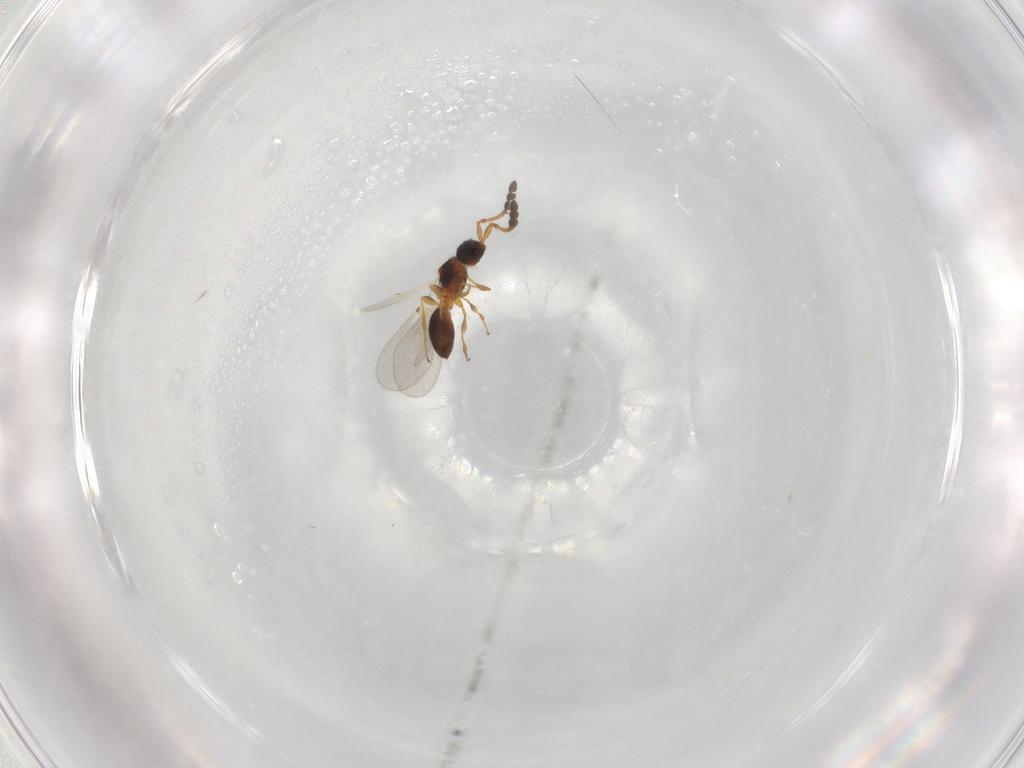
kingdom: Animalia
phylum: Arthropoda
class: Insecta
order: Hymenoptera
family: Diapriidae
